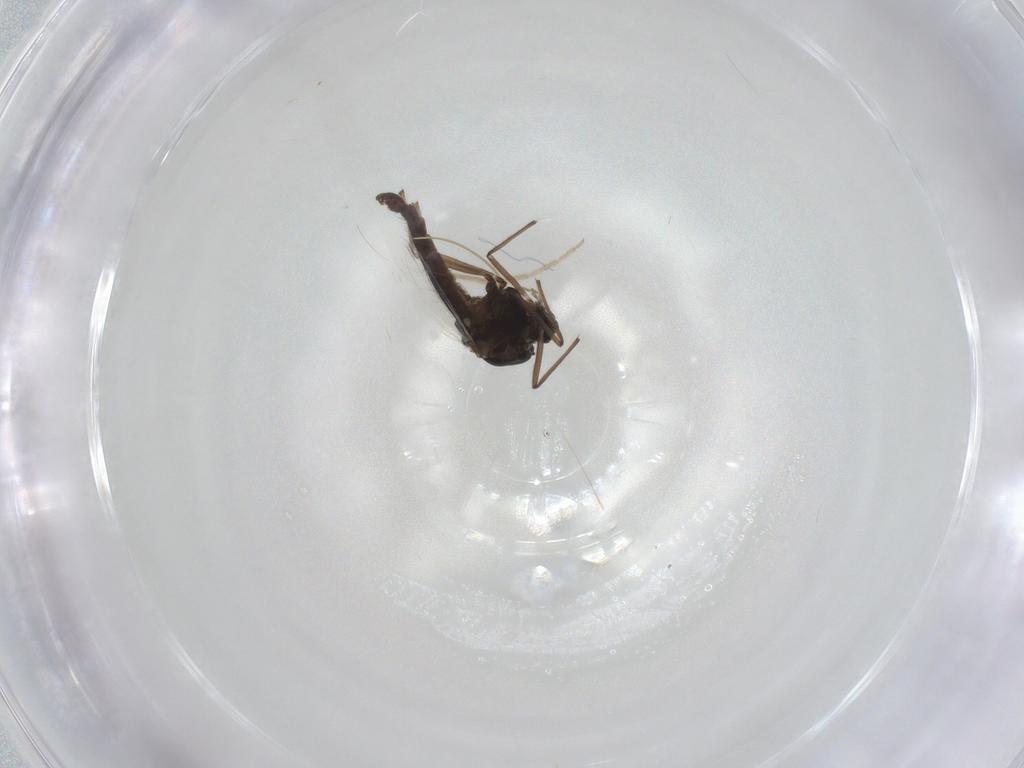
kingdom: Animalia
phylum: Arthropoda
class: Insecta
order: Diptera
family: Chironomidae
